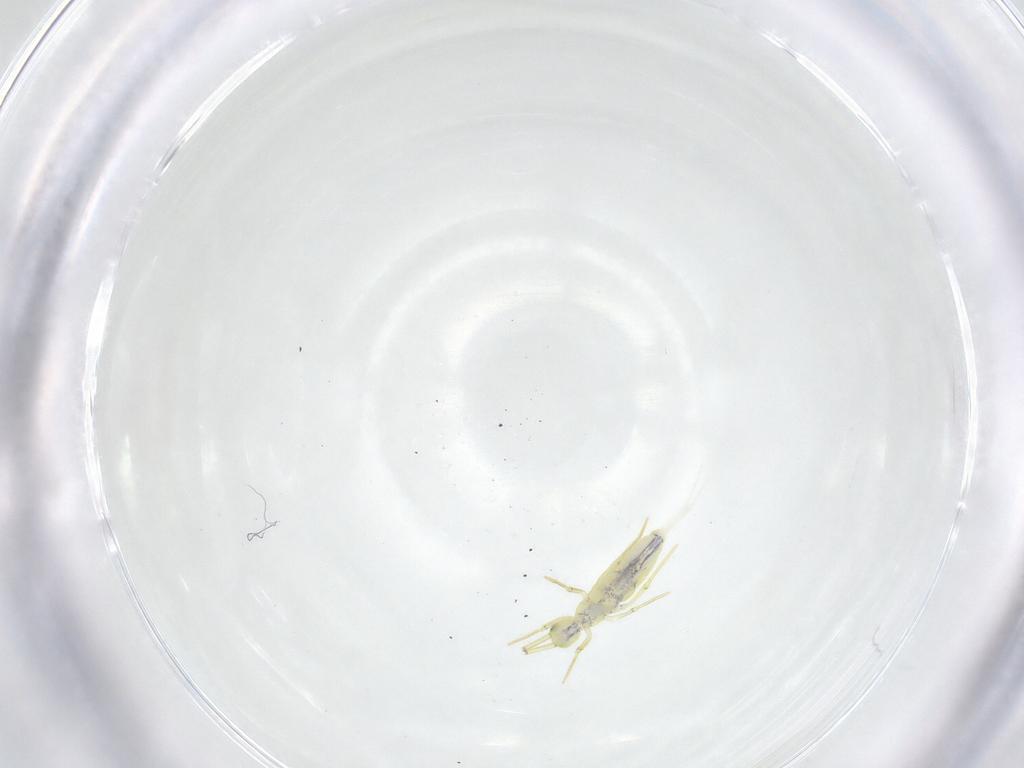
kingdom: Animalia
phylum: Arthropoda
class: Collembola
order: Entomobryomorpha
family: Entomobryidae
